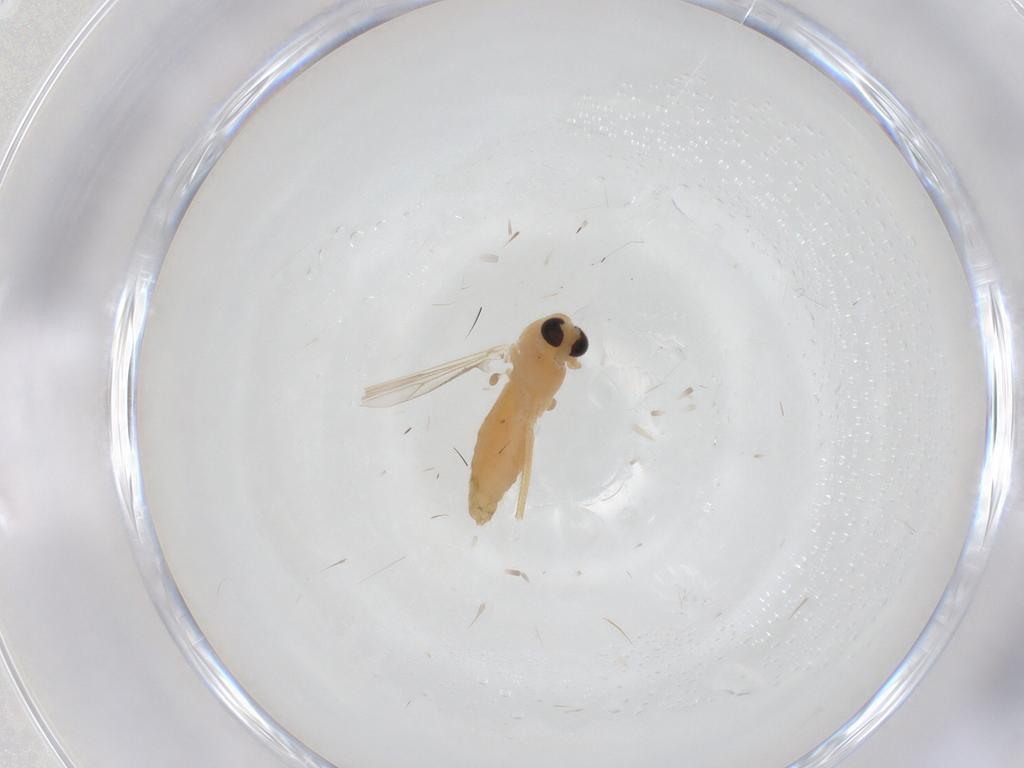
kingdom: Animalia
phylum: Arthropoda
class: Insecta
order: Diptera
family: Chironomidae
